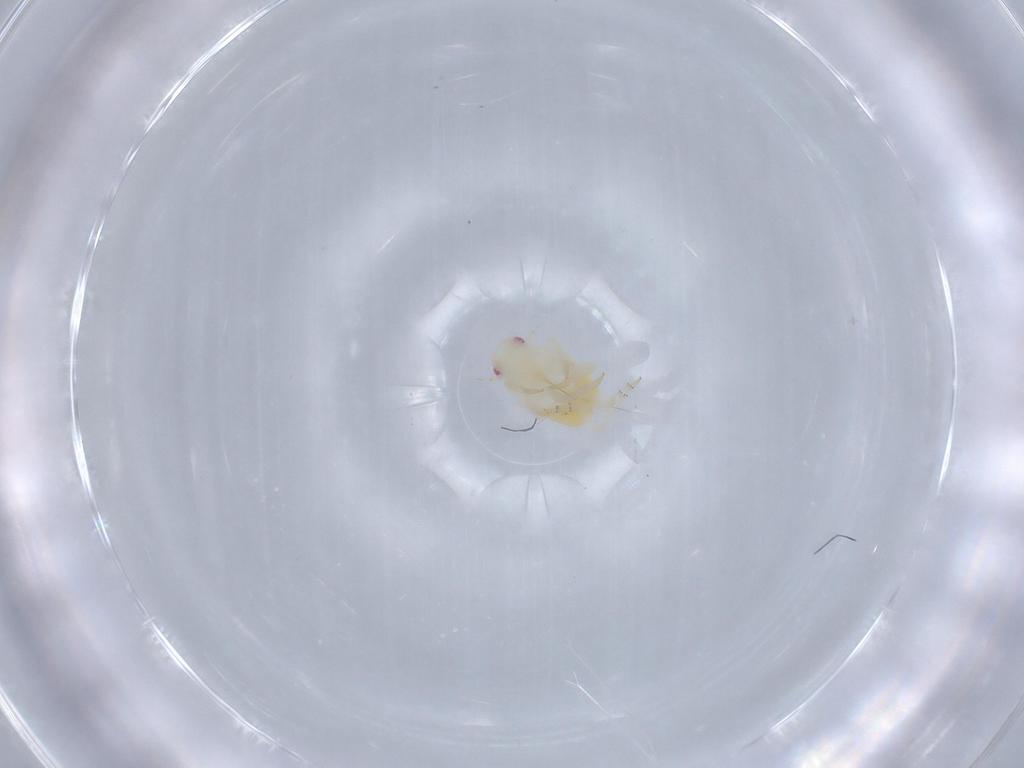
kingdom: Animalia
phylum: Arthropoda
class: Insecta
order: Hemiptera
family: Flatidae
